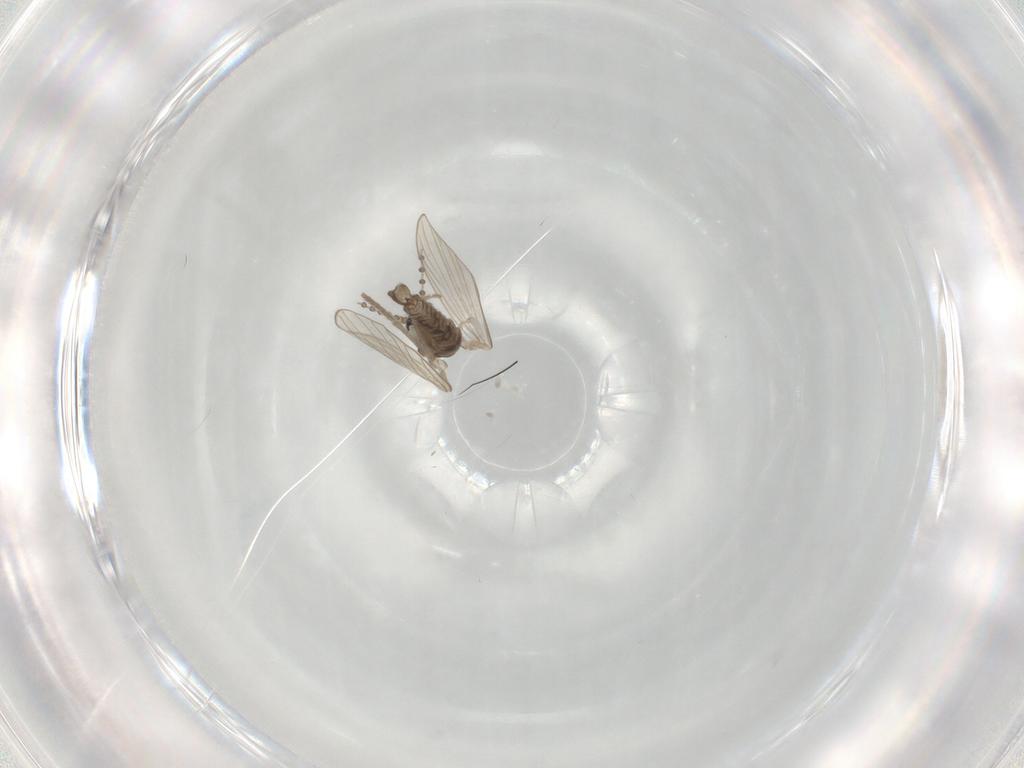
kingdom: Animalia
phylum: Arthropoda
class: Insecta
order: Diptera
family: Psychodidae
